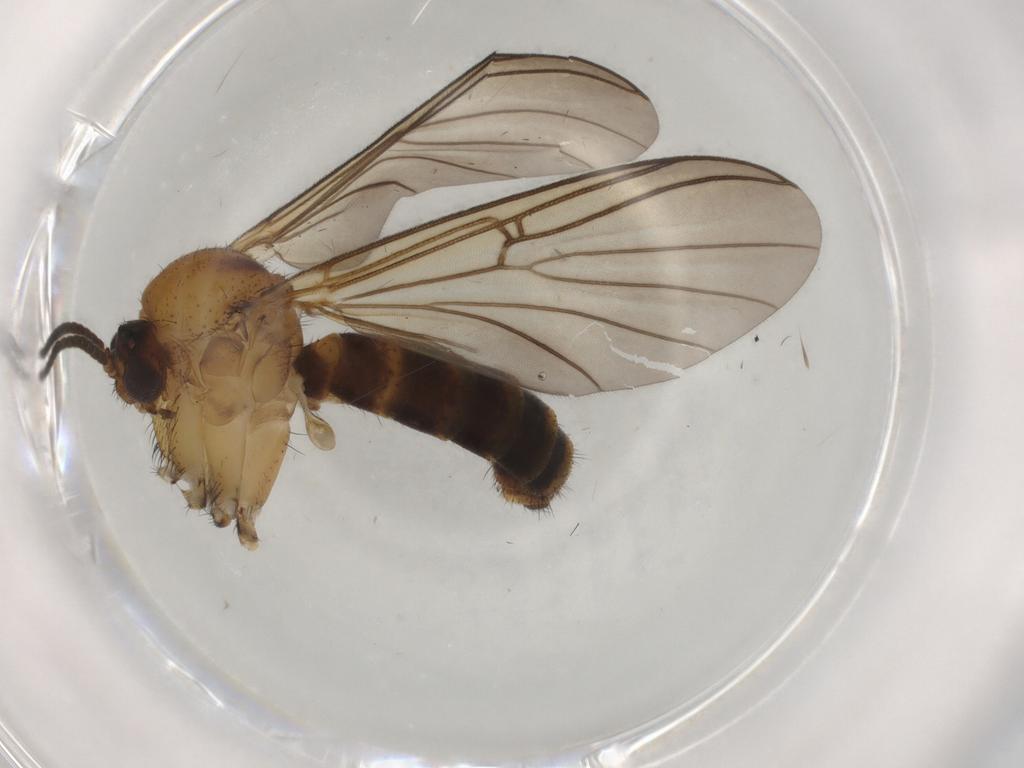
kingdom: Animalia
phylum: Arthropoda
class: Insecta
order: Diptera
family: Mycetophilidae
